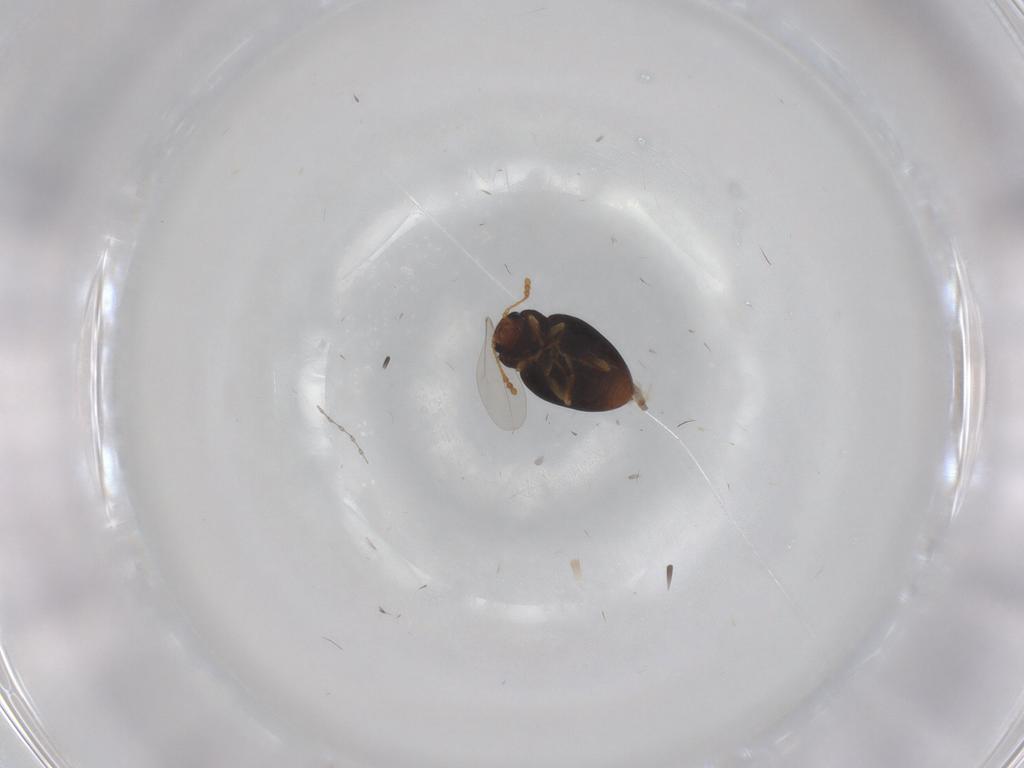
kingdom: Animalia
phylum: Arthropoda
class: Insecta
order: Coleoptera
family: Erotylidae
